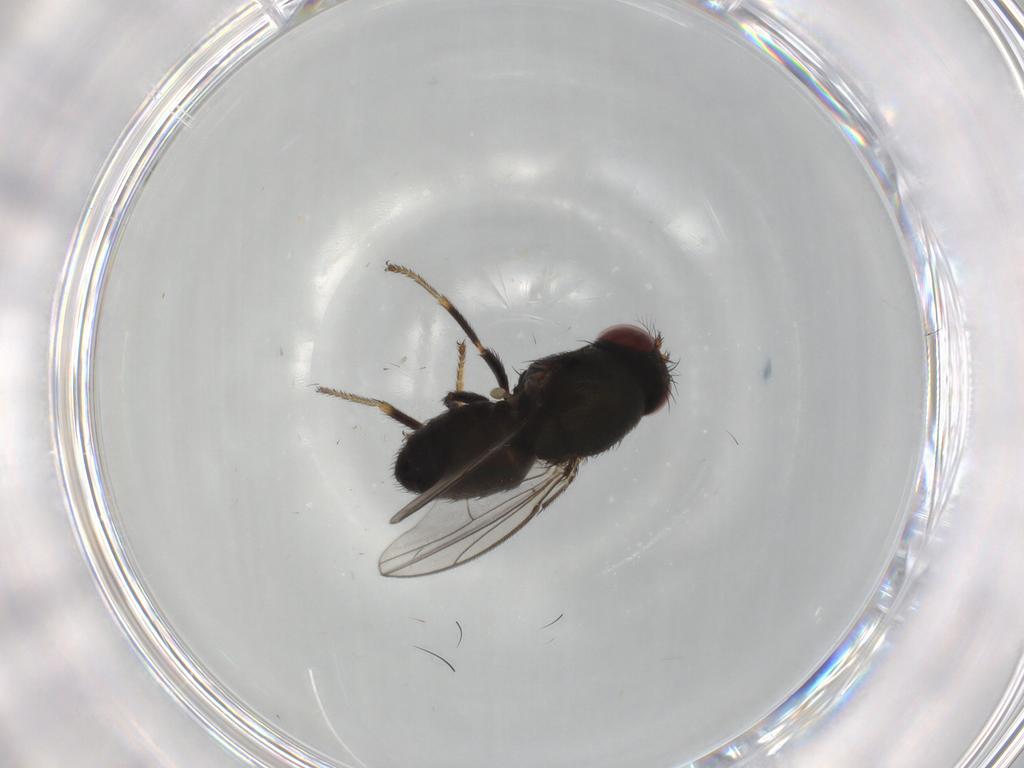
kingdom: Animalia
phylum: Arthropoda
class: Insecta
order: Diptera
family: Ephydridae
